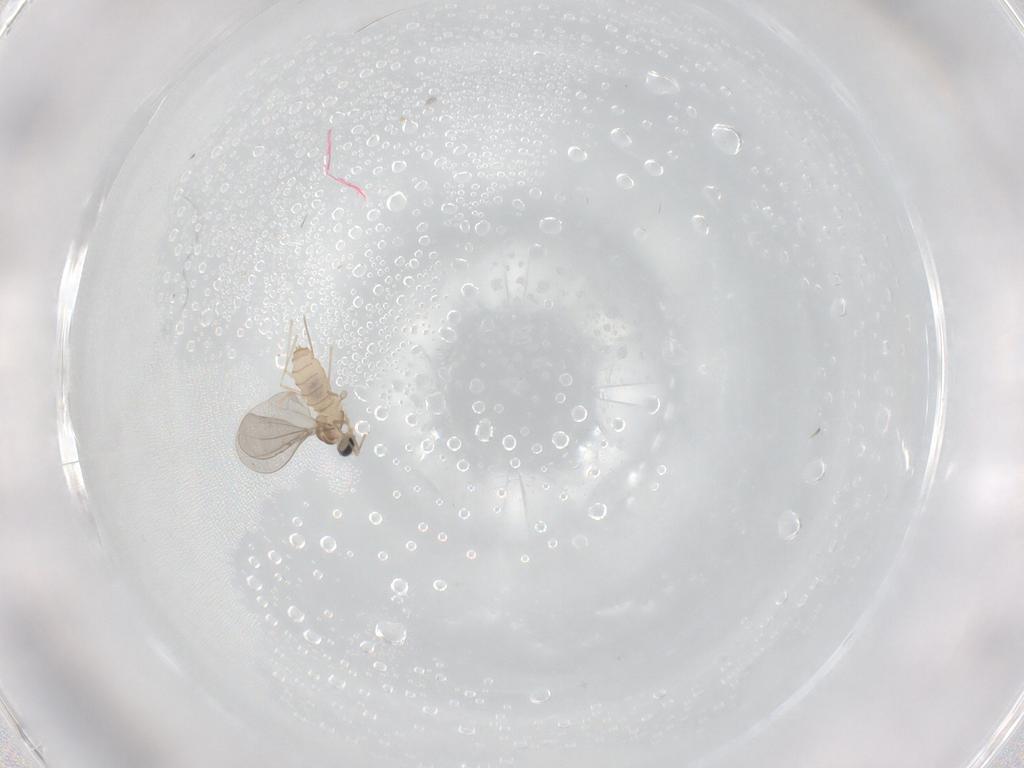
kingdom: Animalia
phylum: Arthropoda
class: Insecta
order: Diptera
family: Cecidomyiidae
